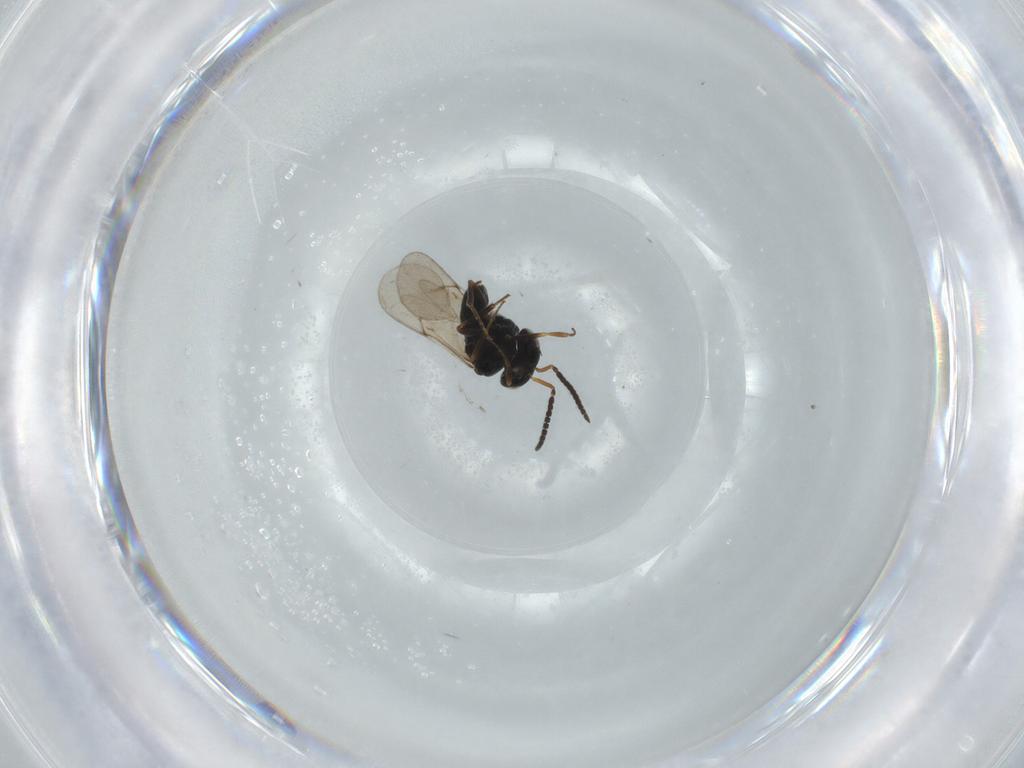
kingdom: Animalia
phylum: Arthropoda
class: Insecta
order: Hymenoptera
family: Scelionidae
